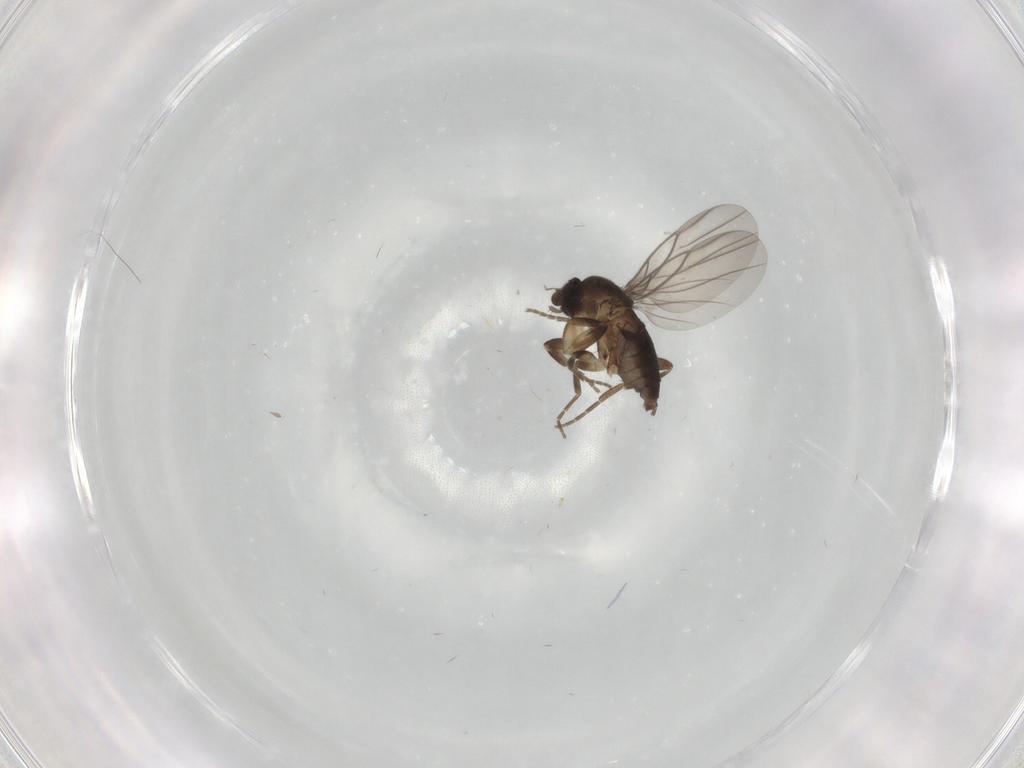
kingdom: Animalia
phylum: Arthropoda
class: Insecta
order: Diptera
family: Phoridae
